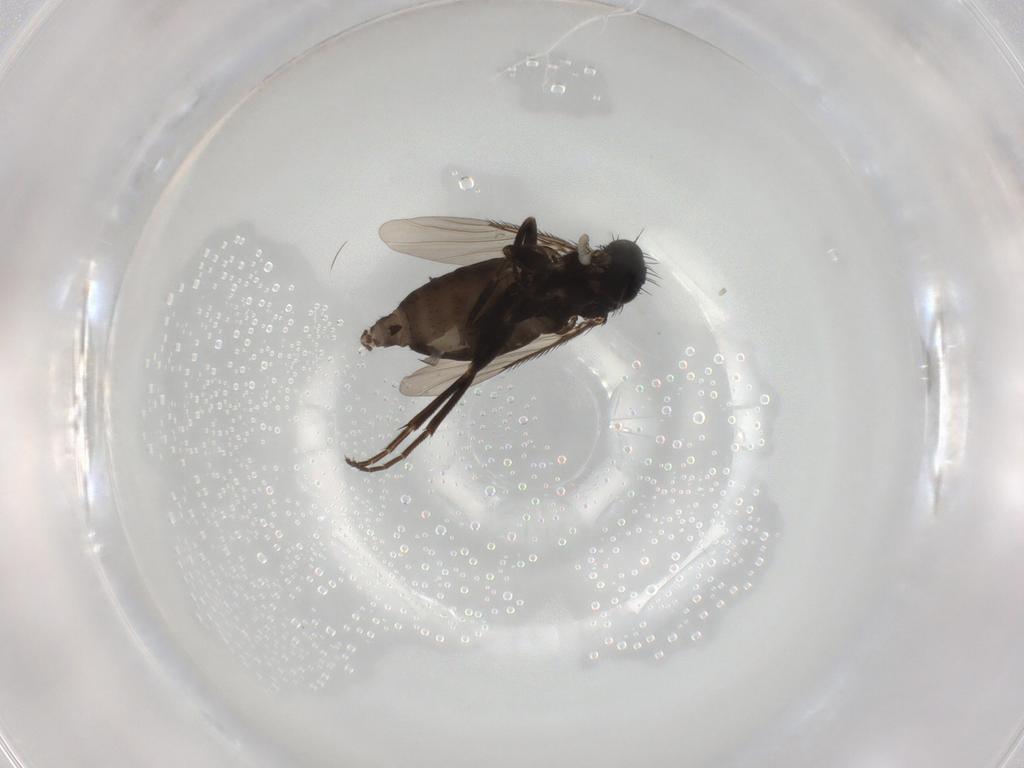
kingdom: Animalia
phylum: Arthropoda
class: Insecta
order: Diptera
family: Phoridae
